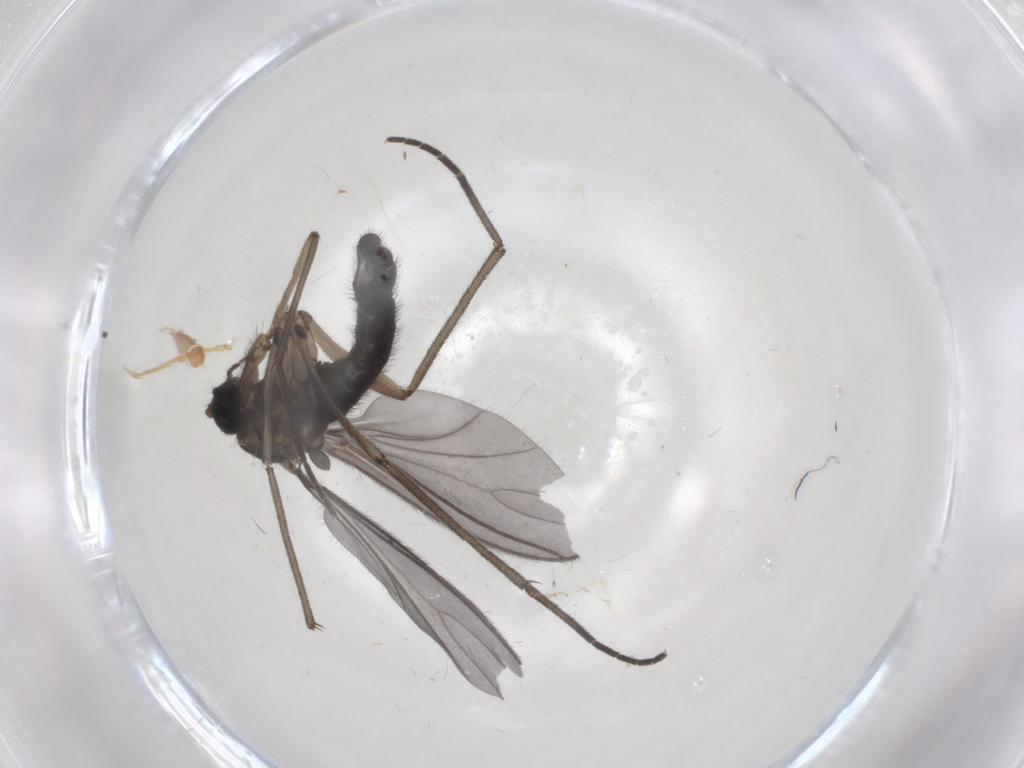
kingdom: Animalia
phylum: Arthropoda
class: Insecta
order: Diptera
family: Sciaridae
